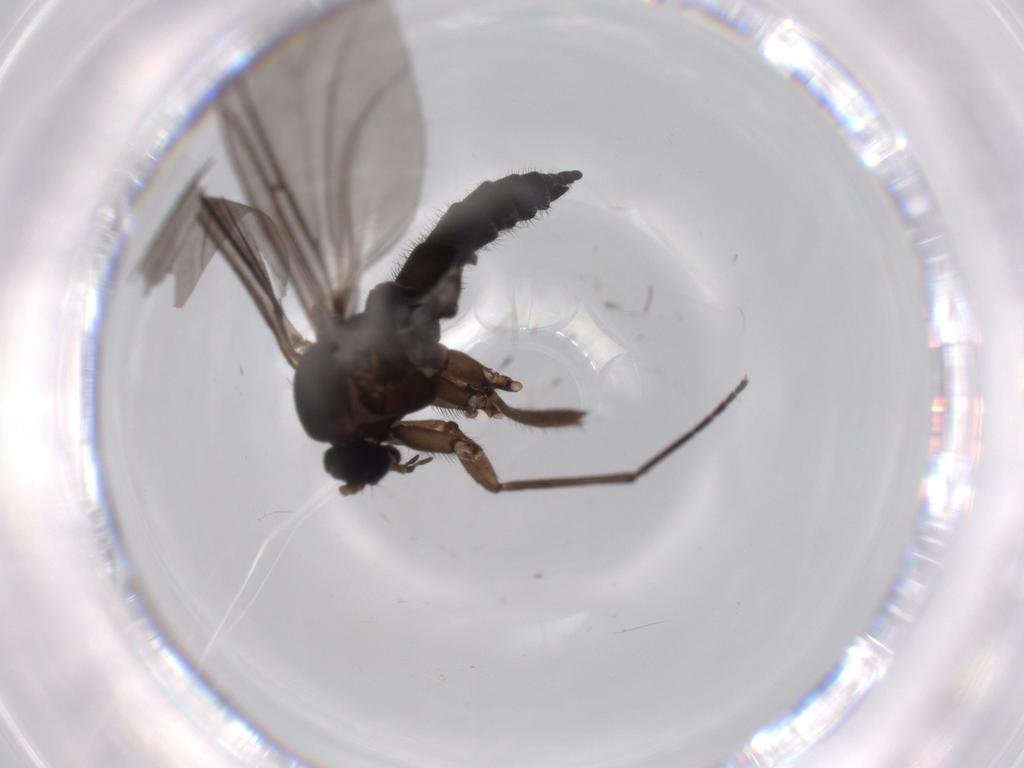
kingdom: Animalia
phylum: Arthropoda
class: Insecta
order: Diptera
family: Sciaridae
